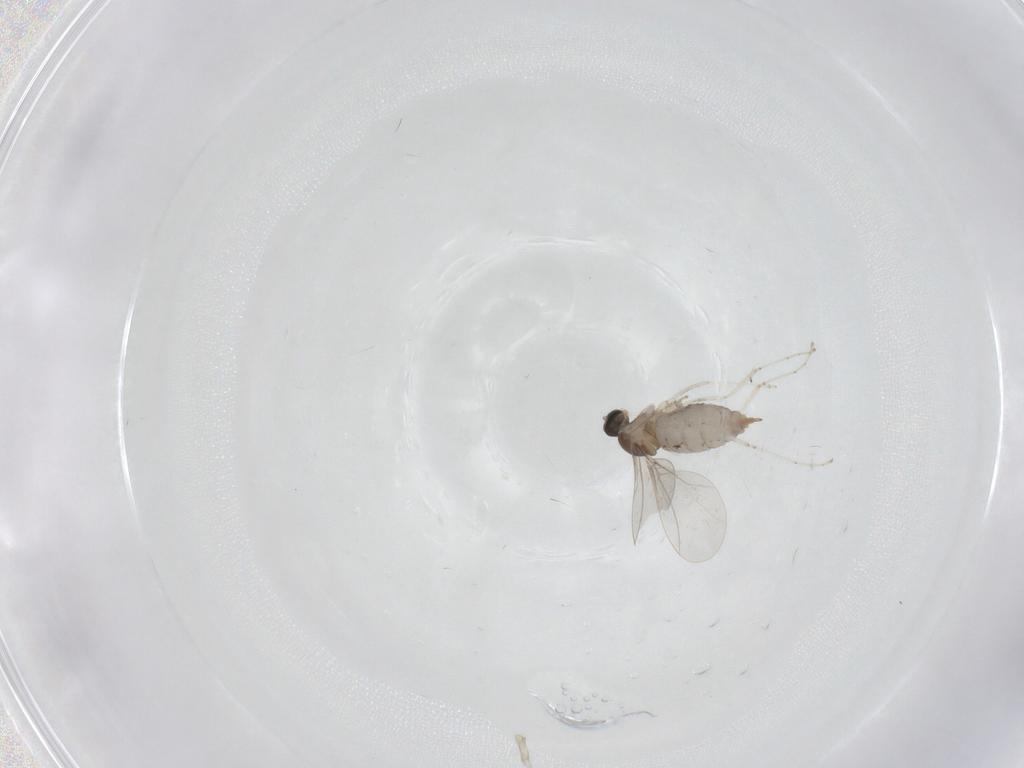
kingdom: Animalia
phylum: Arthropoda
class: Insecta
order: Diptera
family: Cecidomyiidae
